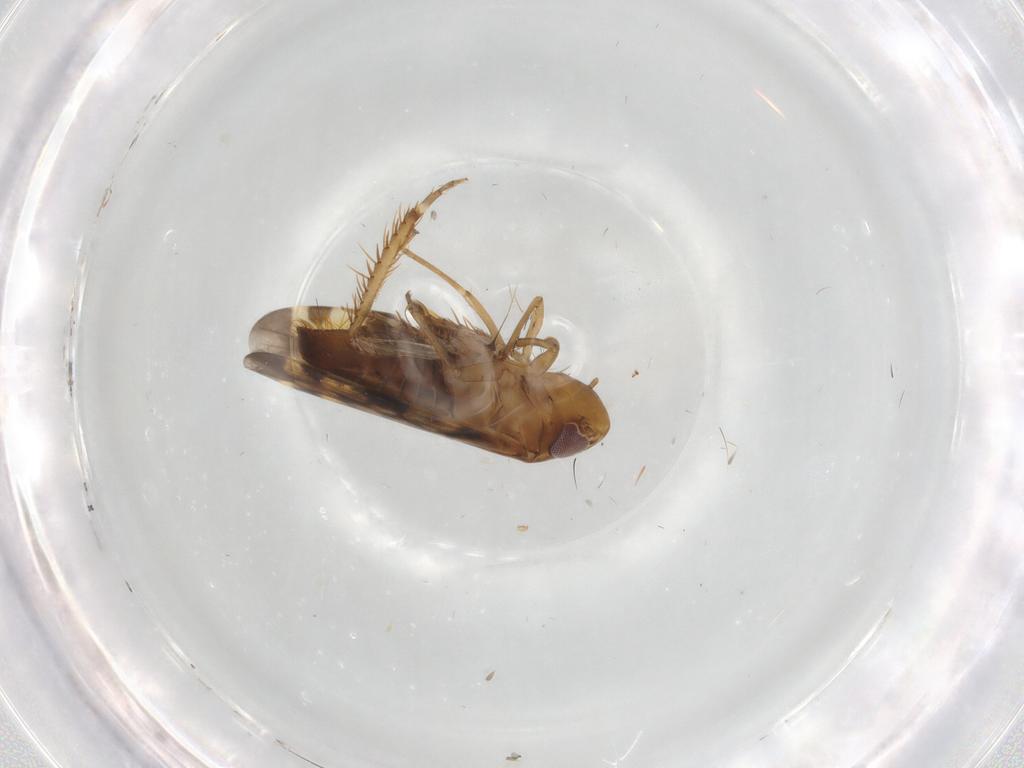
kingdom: Animalia
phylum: Arthropoda
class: Insecta
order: Hemiptera
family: Cicadellidae
